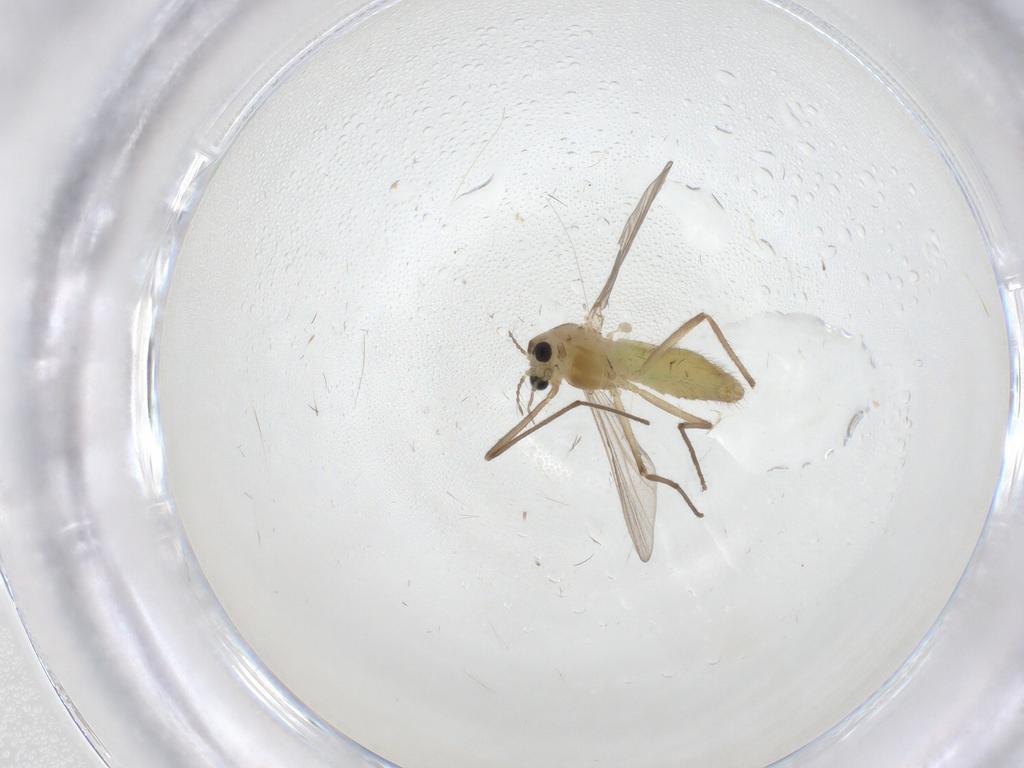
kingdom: Animalia
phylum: Arthropoda
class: Insecta
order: Diptera
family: Chironomidae
